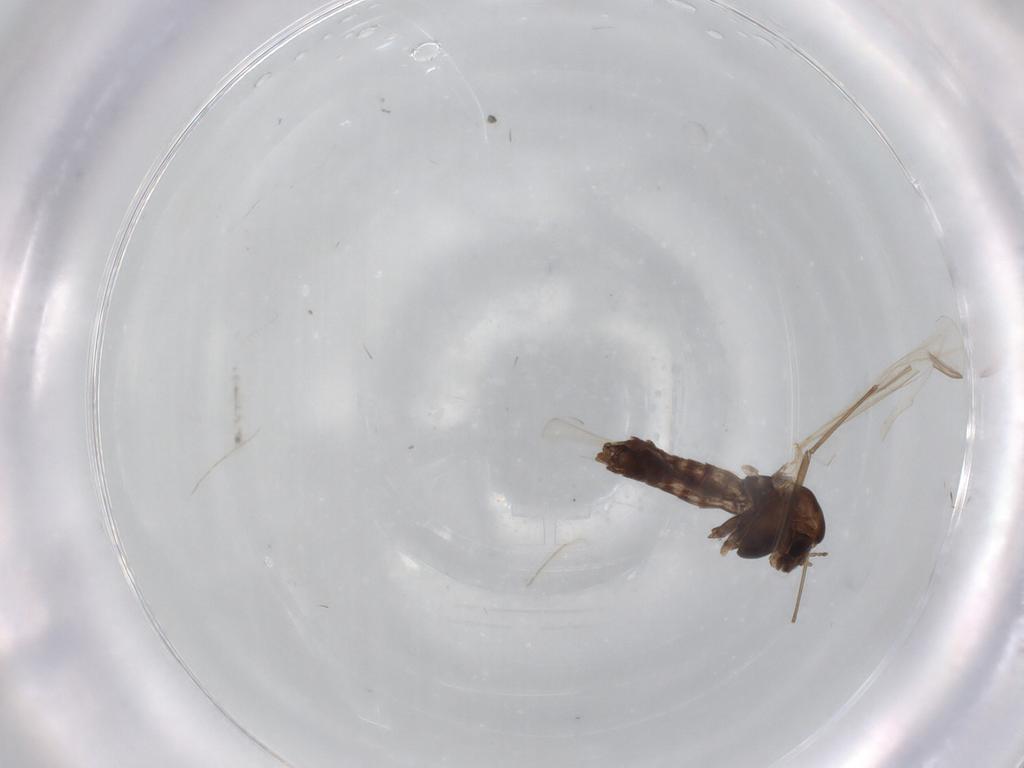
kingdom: Animalia
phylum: Arthropoda
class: Insecta
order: Diptera
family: Chironomidae
